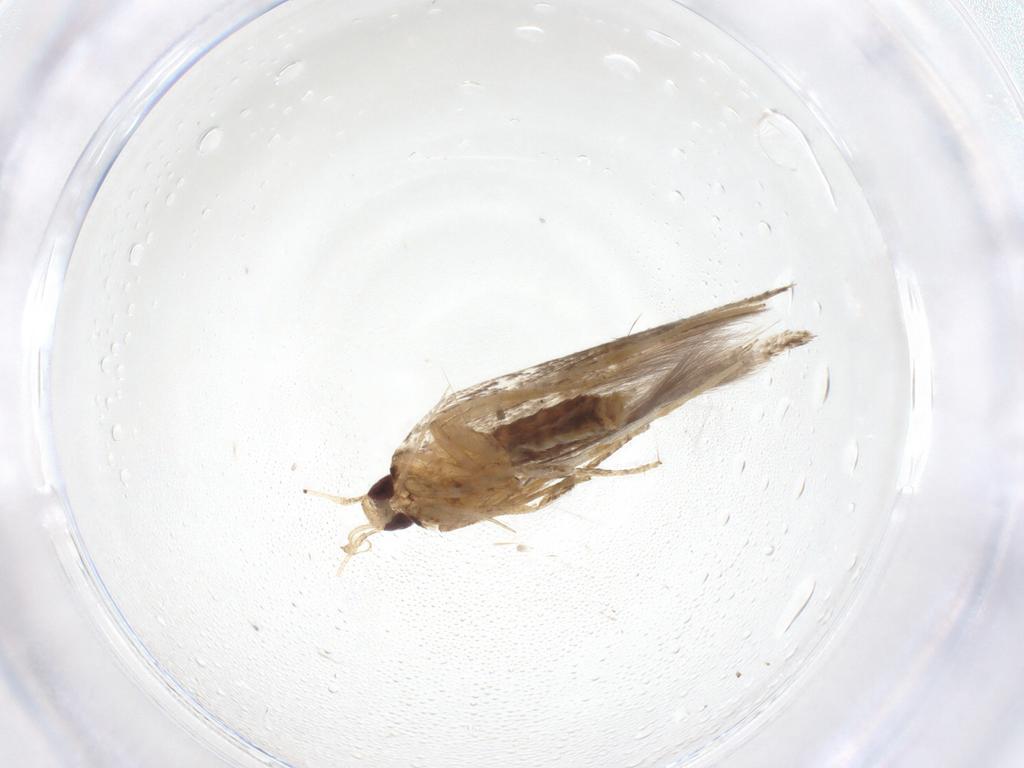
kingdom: Animalia
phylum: Arthropoda
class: Insecta
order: Lepidoptera
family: Cosmopterigidae
